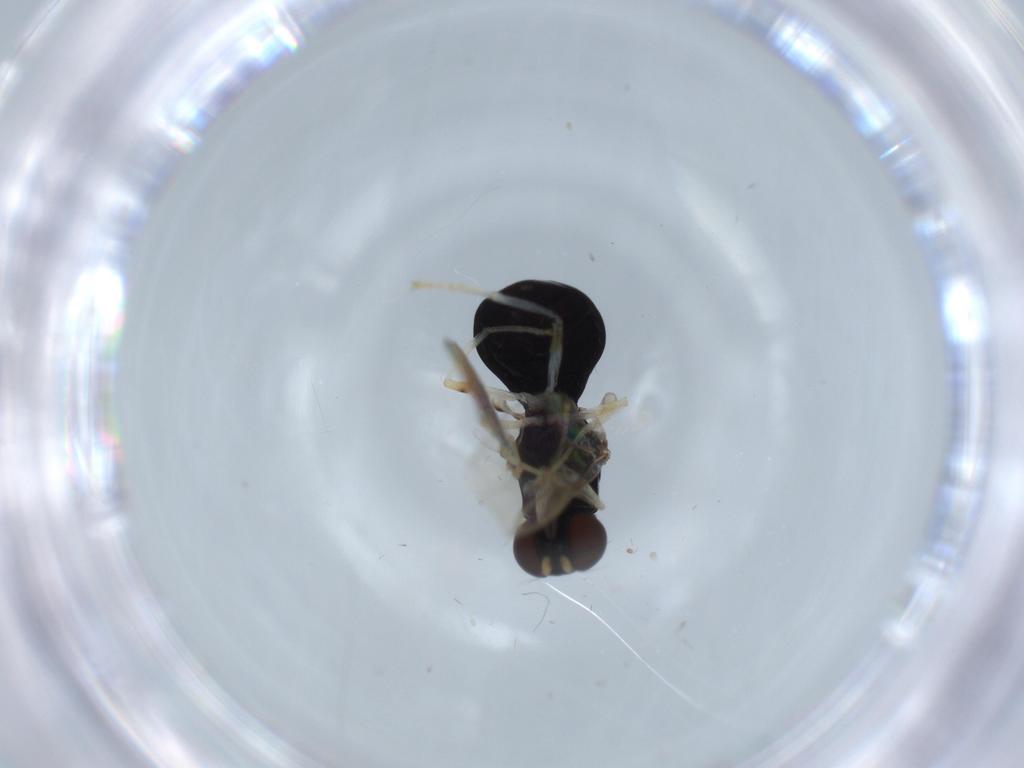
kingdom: Animalia
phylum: Arthropoda
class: Insecta
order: Diptera
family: Stratiomyidae
